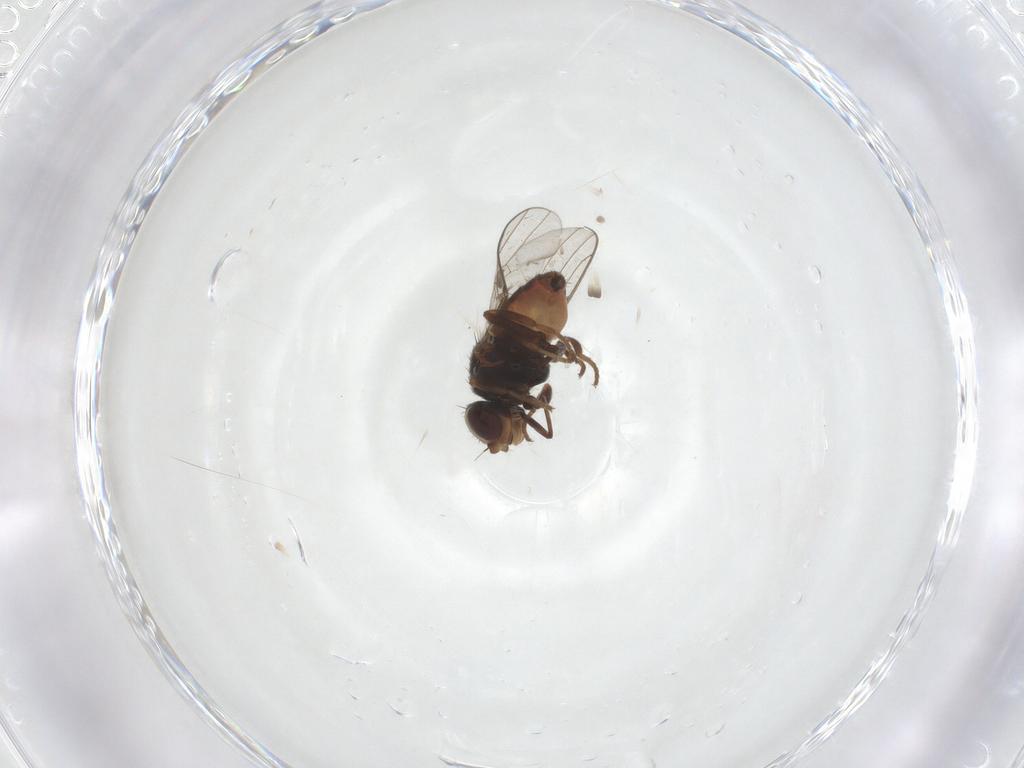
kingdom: Animalia
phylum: Arthropoda
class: Insecta
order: Diptera
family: Chloropidae
